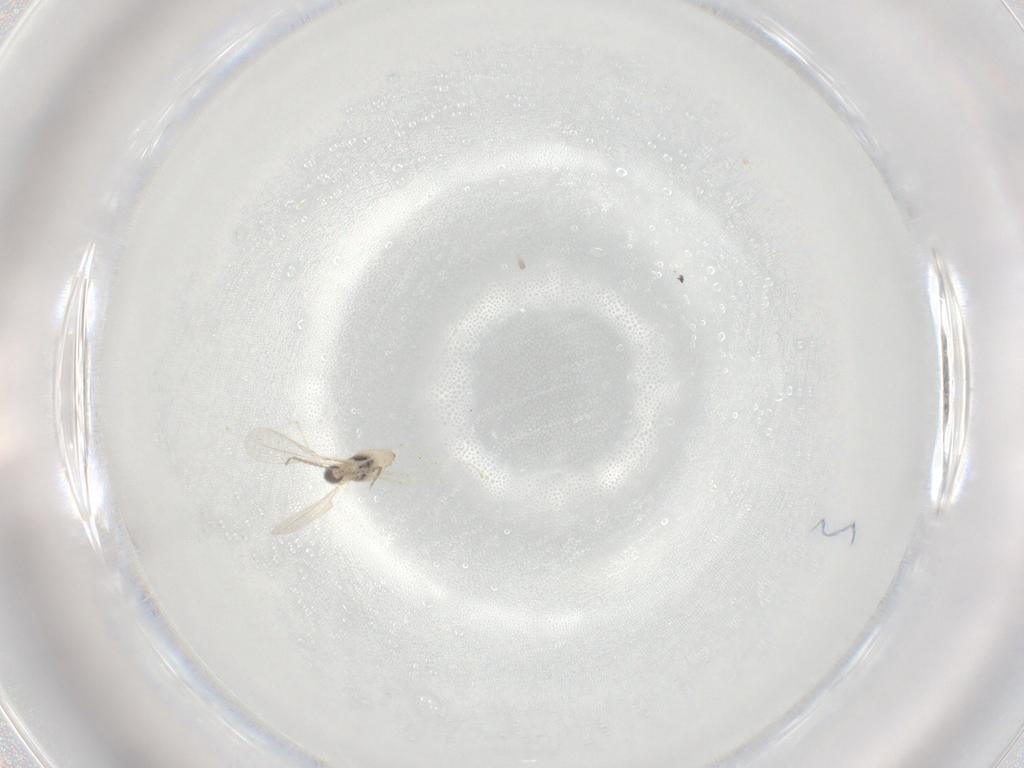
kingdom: Animalia
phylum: Arthropoda
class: Insecta
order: Diptera
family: Cecidomyiidae
